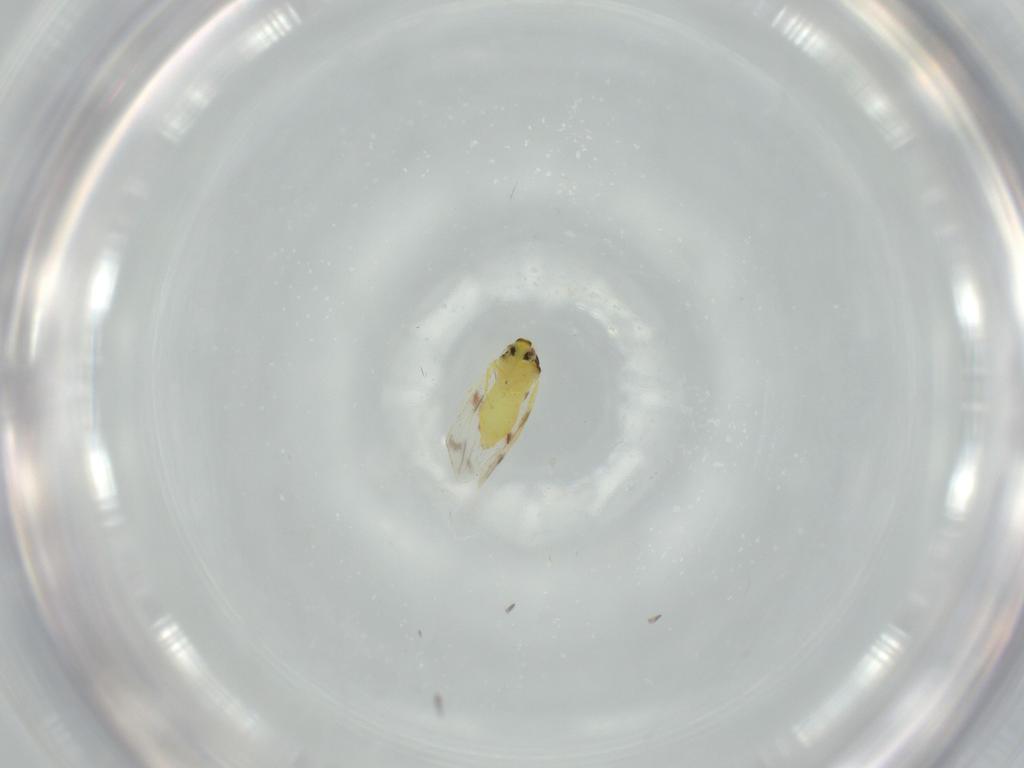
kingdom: Animalia
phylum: Arthropoda
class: Insecta
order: Hemiptera
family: Aleyrodidae
